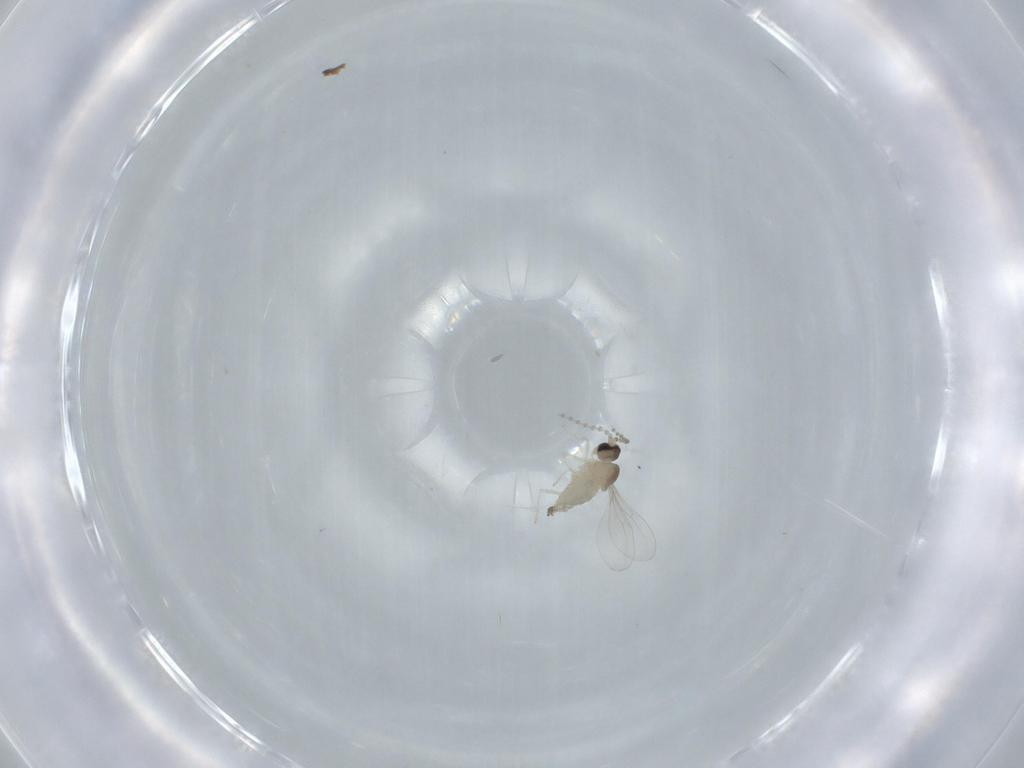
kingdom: Animalia
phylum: Arthropoda
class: Insecta
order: Diptera
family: Cecidomyiidae
